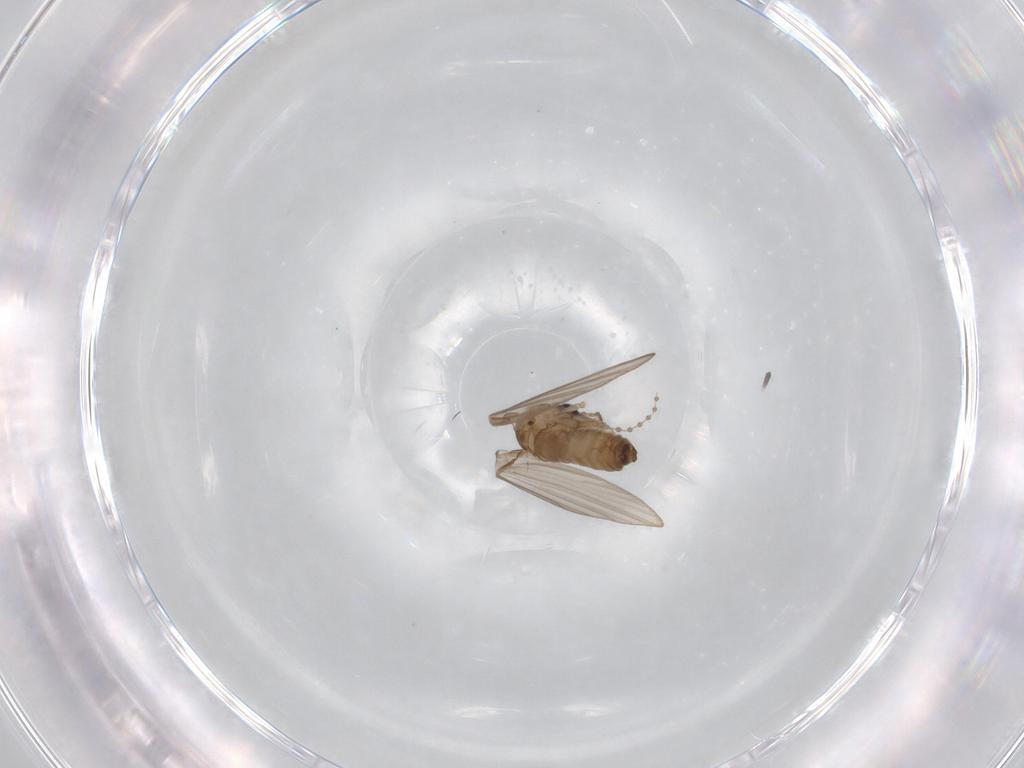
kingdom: Animalia
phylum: Arthropoda
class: Insecta
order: Diptera
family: Psychodidae
